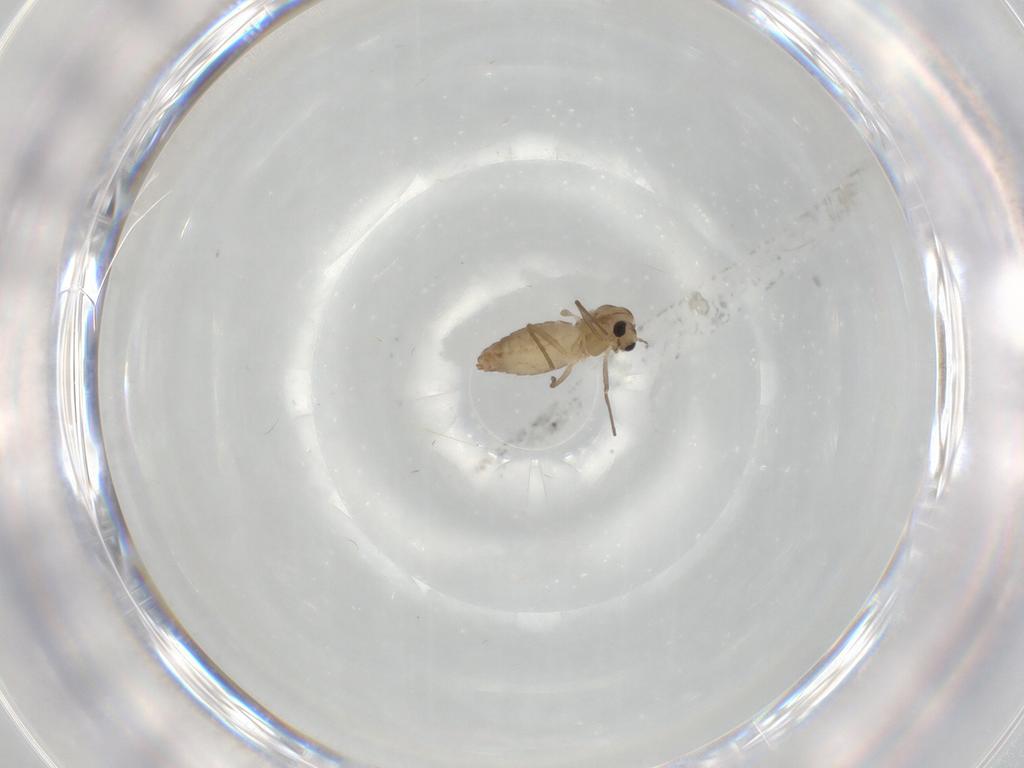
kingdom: Animalia
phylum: Arthropoda
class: Insecta
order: Diptera
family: Chironomidae
